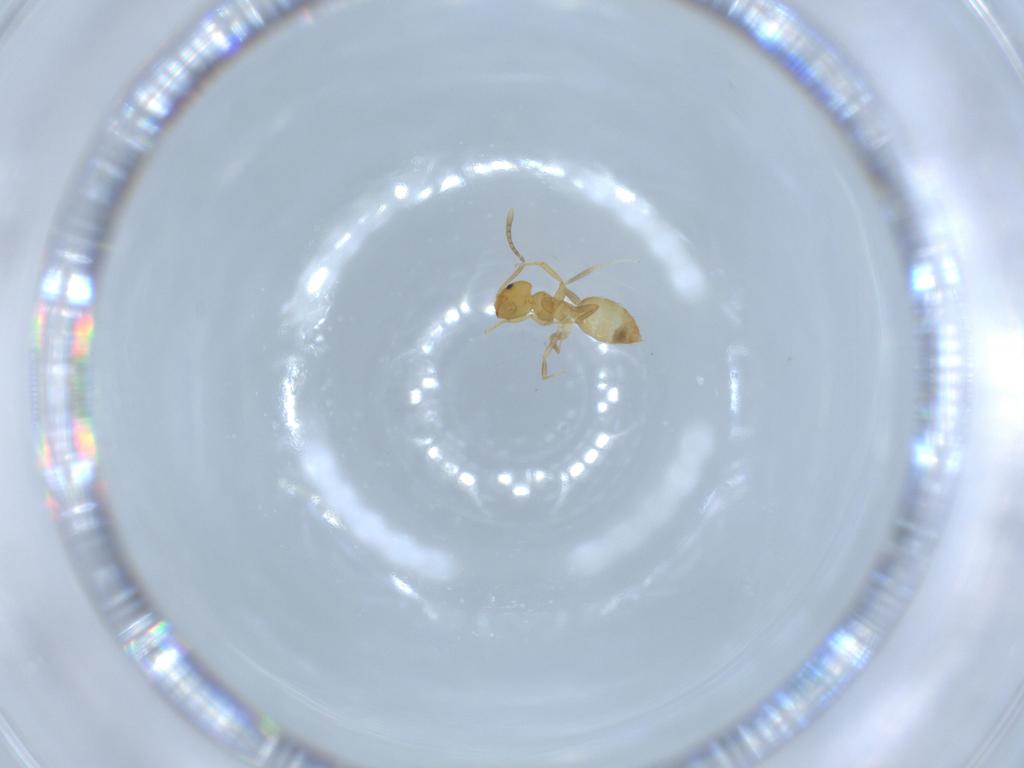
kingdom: Animalia
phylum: Arthropoda
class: Insecta
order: Hymenoptera
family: Formicidae
